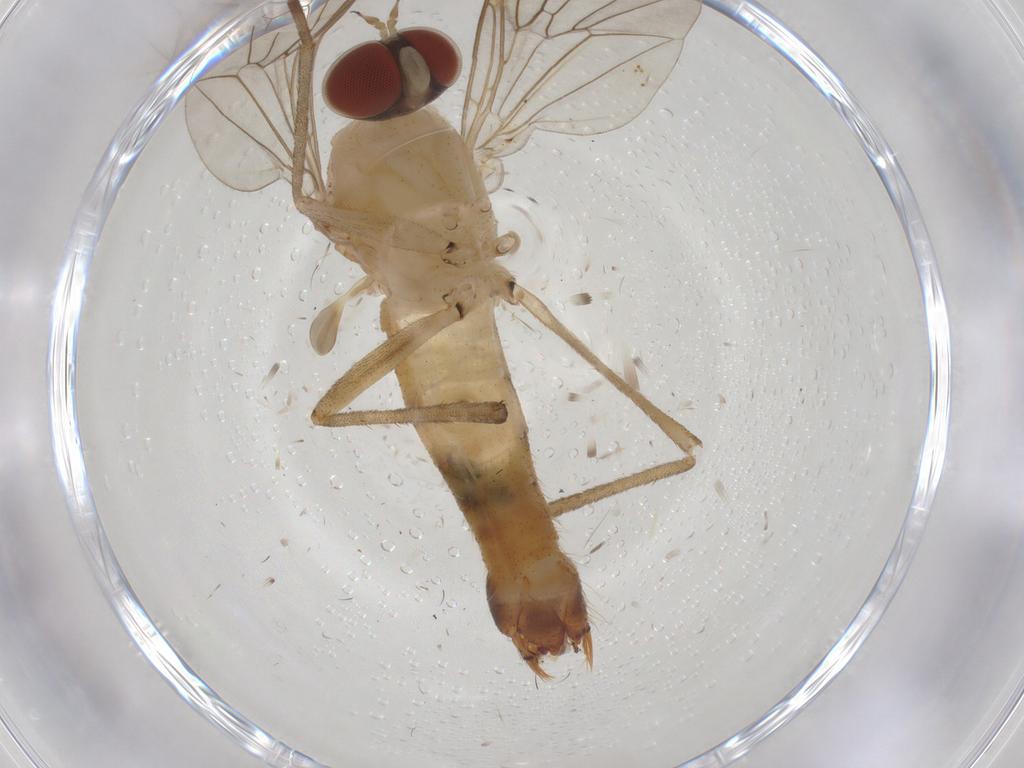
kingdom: Animalia
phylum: Arthropoda
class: Insecta
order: Diptera
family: Apsilocephalidae
